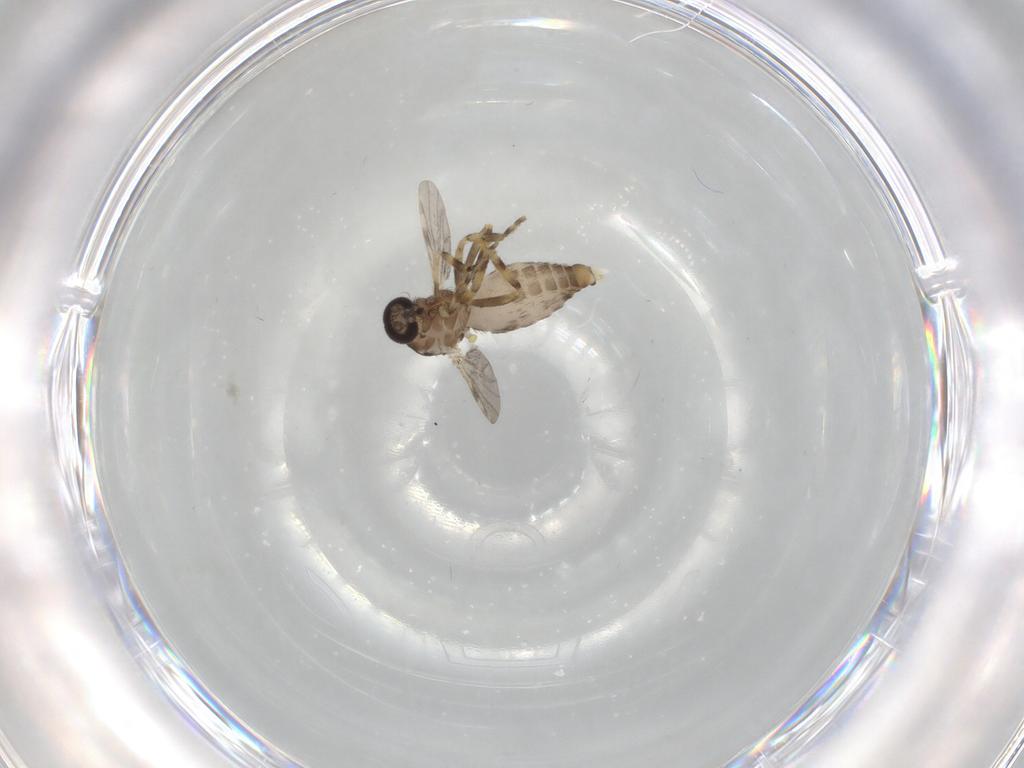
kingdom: Animalia
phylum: Arthropoda
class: Insecta
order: Diptera
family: Ceratopogonidae
